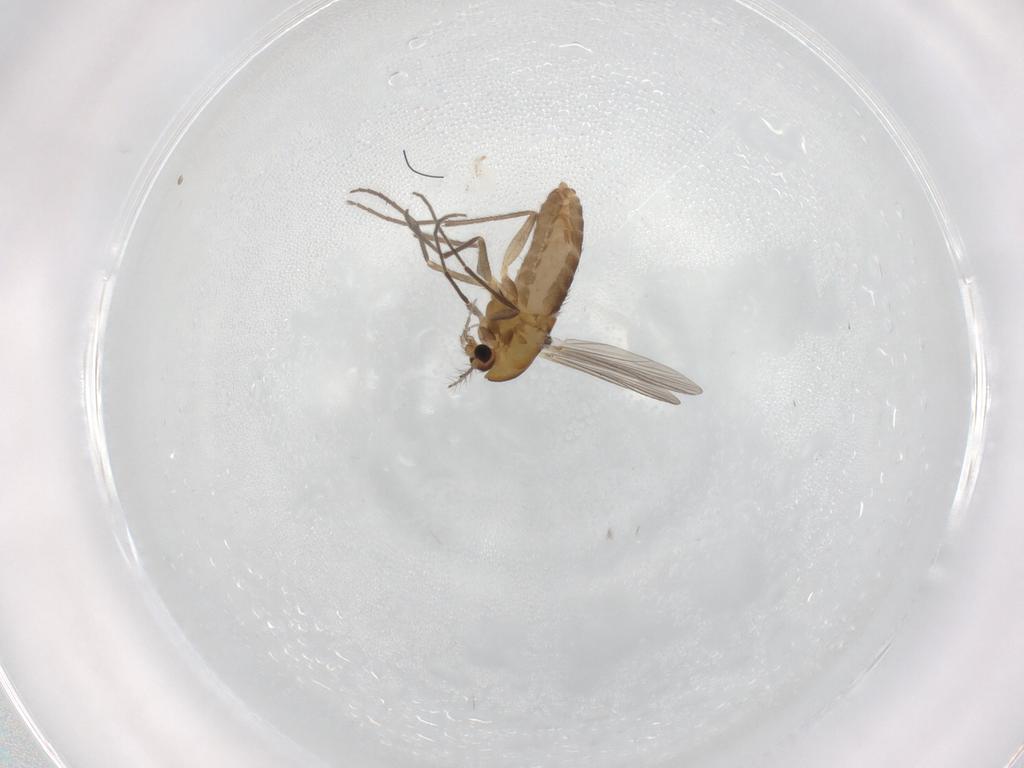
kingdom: Animalia
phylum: Arthropoda
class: Insecta
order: Diptera
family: Chironomidae
